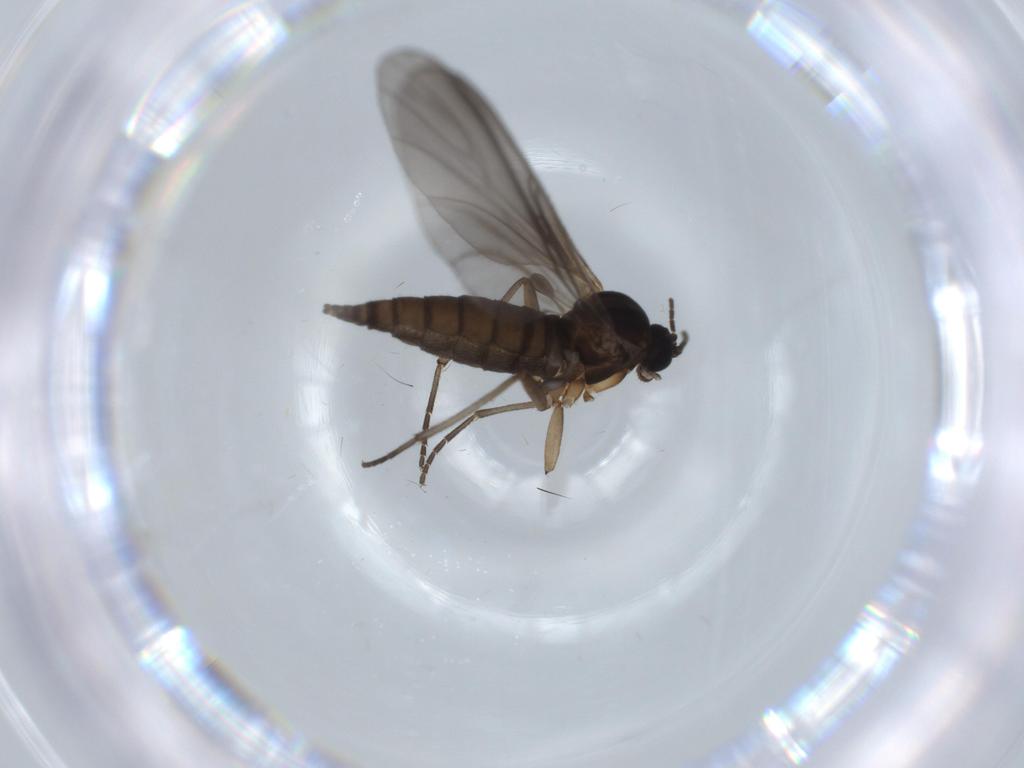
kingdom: Animalia
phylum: Arthropoda
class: Insecta
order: Diptera
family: Sciaridae
